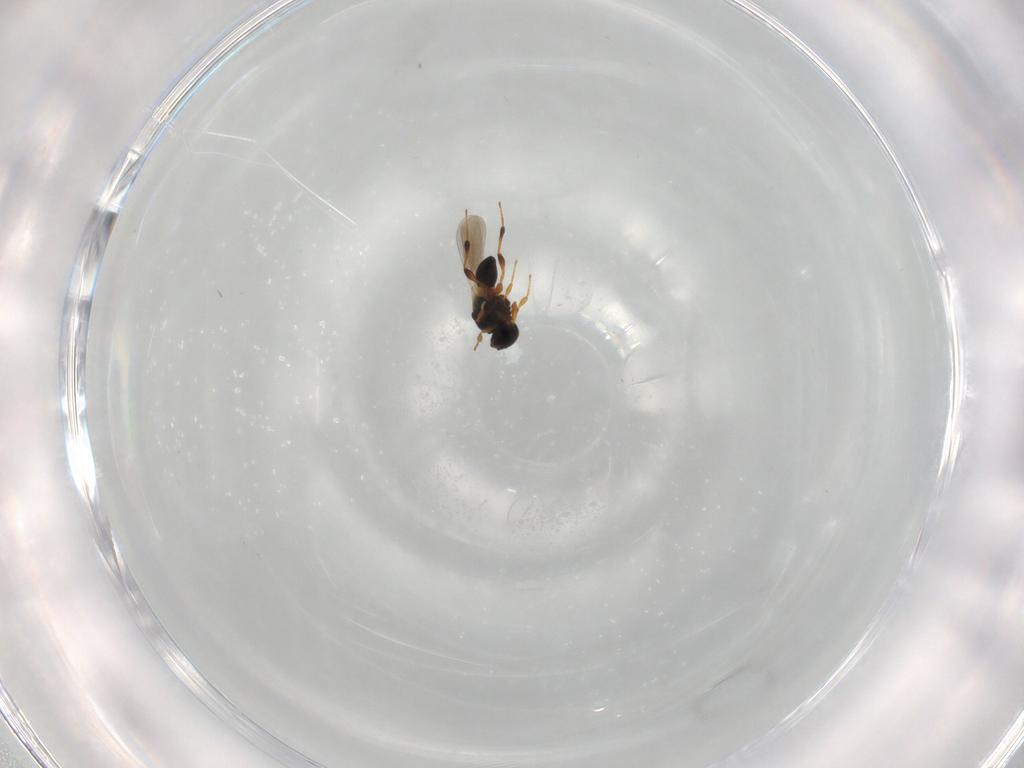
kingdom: Animalia
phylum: Arthropoda
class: Insecta
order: Hymenoptera
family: Platygastridae
